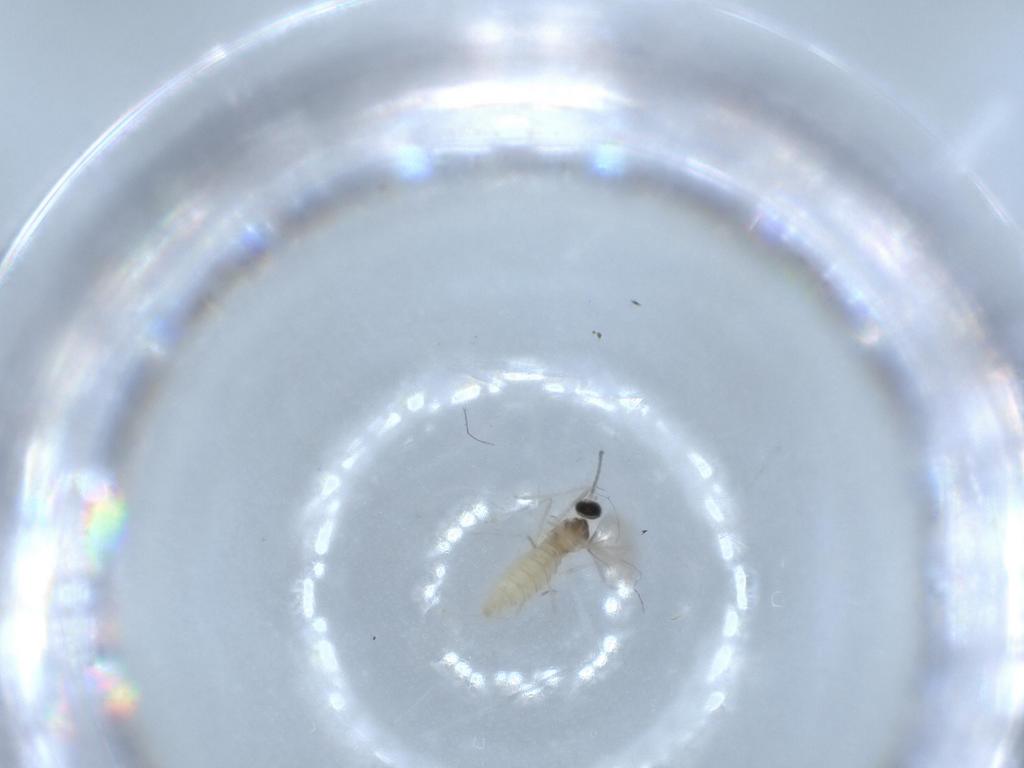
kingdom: Animalia
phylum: Arthropoda
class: Insecta
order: Diptera
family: Cecidomyiidae
